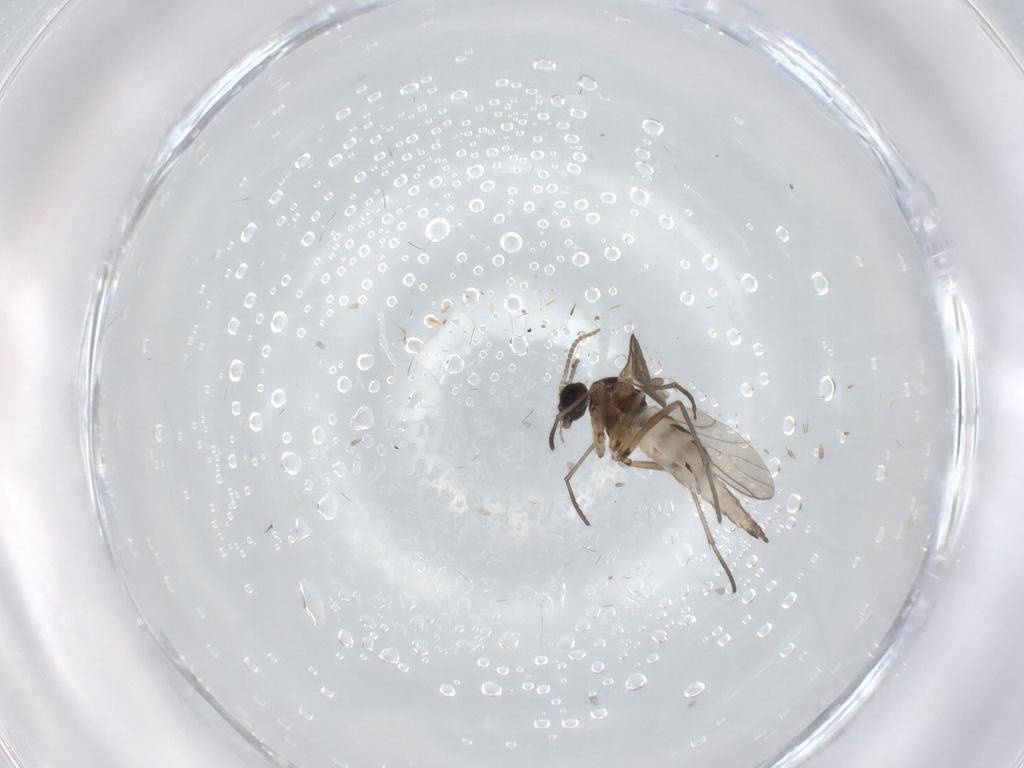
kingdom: Animalia
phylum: Arthropoda
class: Insecta
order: Diptera
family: Sciaridae
